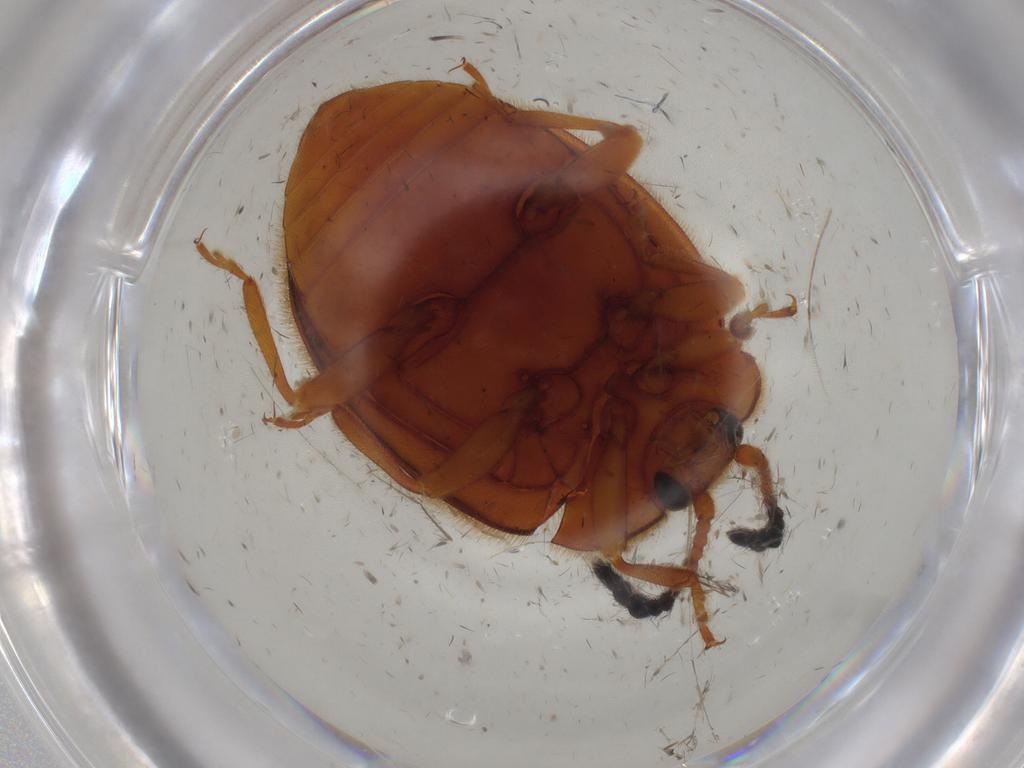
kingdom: Animalia
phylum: Arthropoda
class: Insecta
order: Coleoptera
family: Endomychidae
